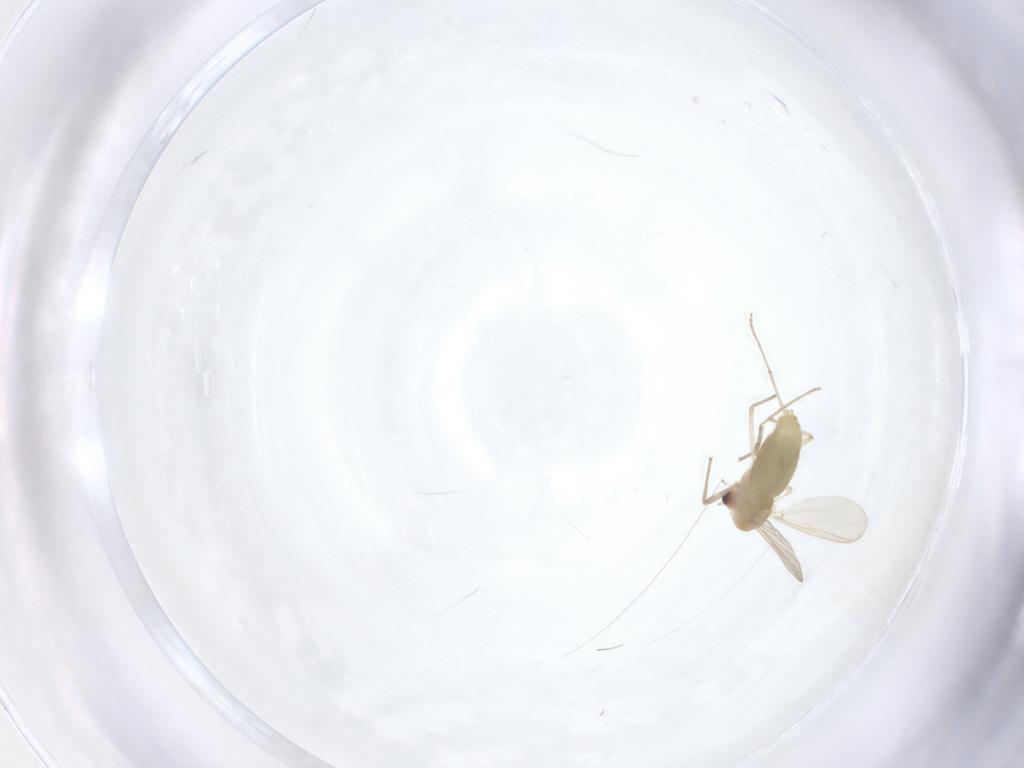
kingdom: Animalia
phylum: Arthropoda
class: Insecta
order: Diptera
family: Chironomidae
